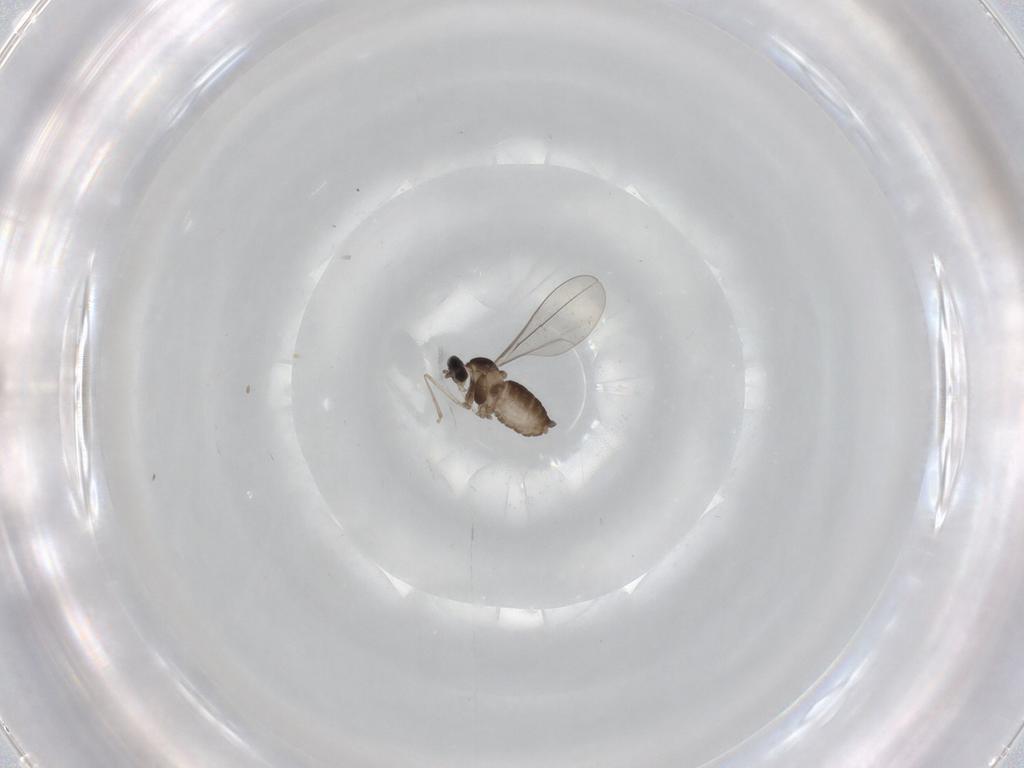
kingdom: Animalia
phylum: Arthropoda
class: Insecta
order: Diptera
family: Cecidomyiidae
